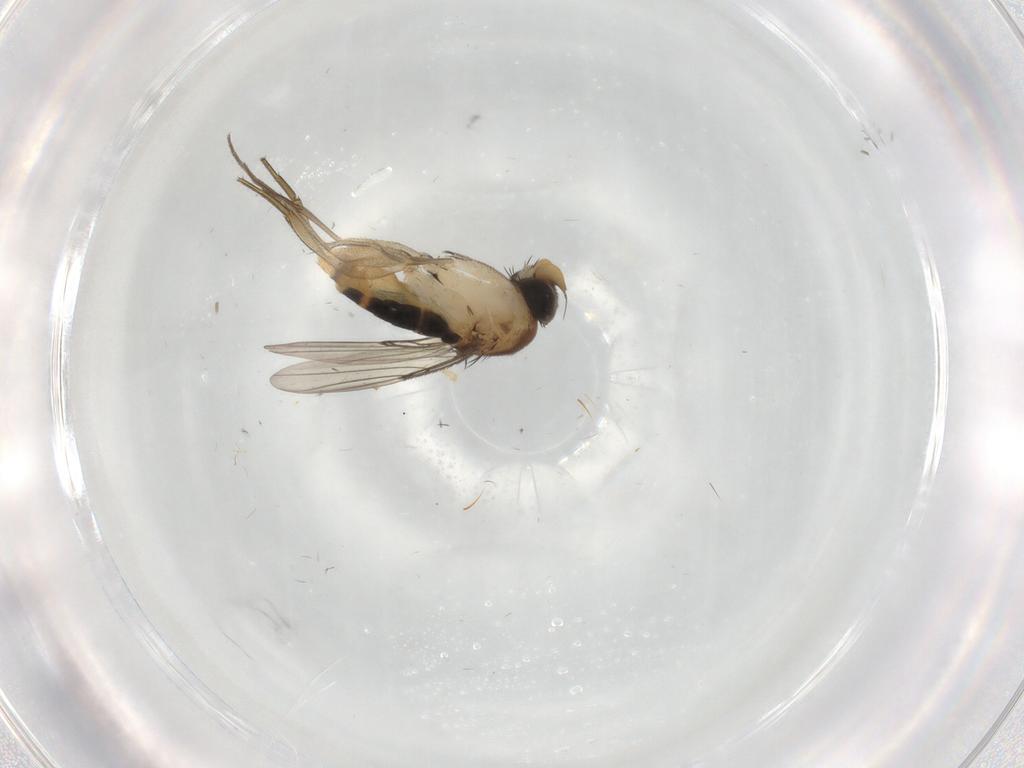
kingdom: Animalia
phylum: Arthropoda
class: Insecta
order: Diptera
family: Phoridae
